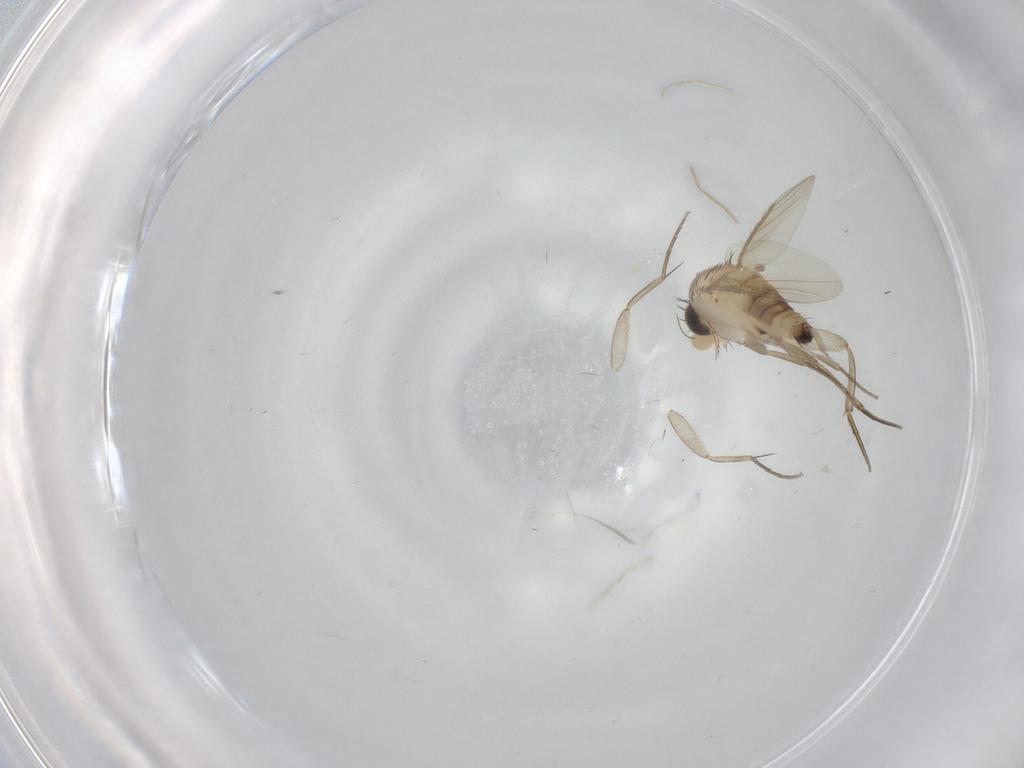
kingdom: Animalia
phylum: Arthropoda
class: Insecta
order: Diptera
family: Phoridae
